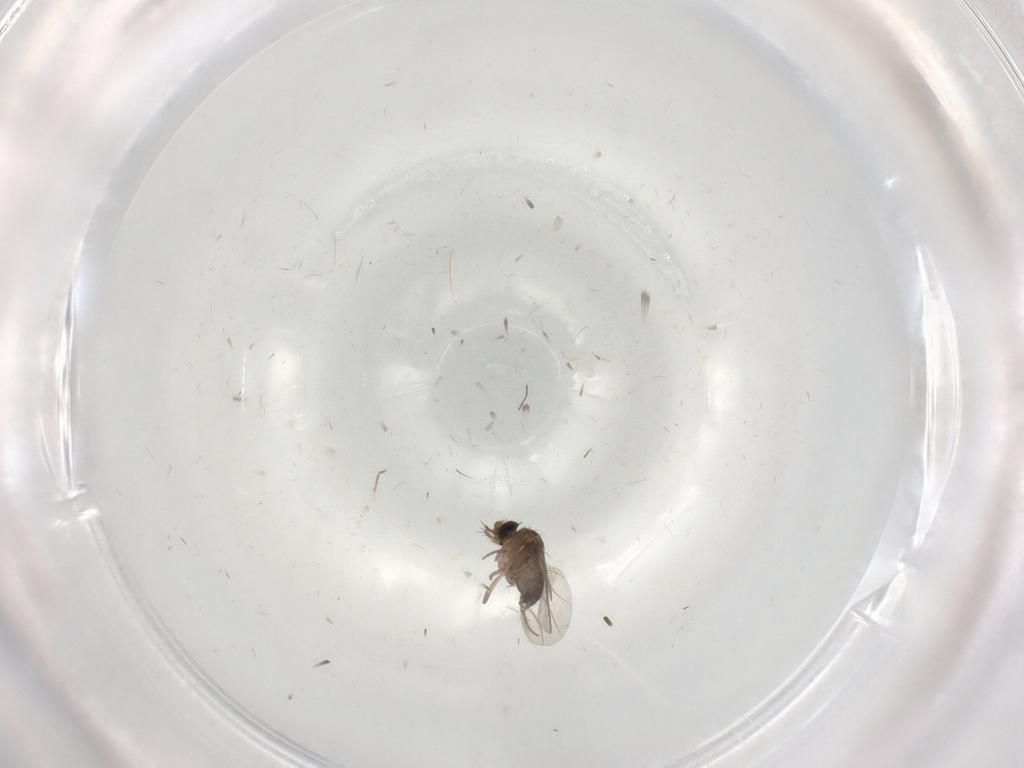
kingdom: Animalia
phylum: Arthropoda
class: Insecta
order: Diptera
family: Phoridae
